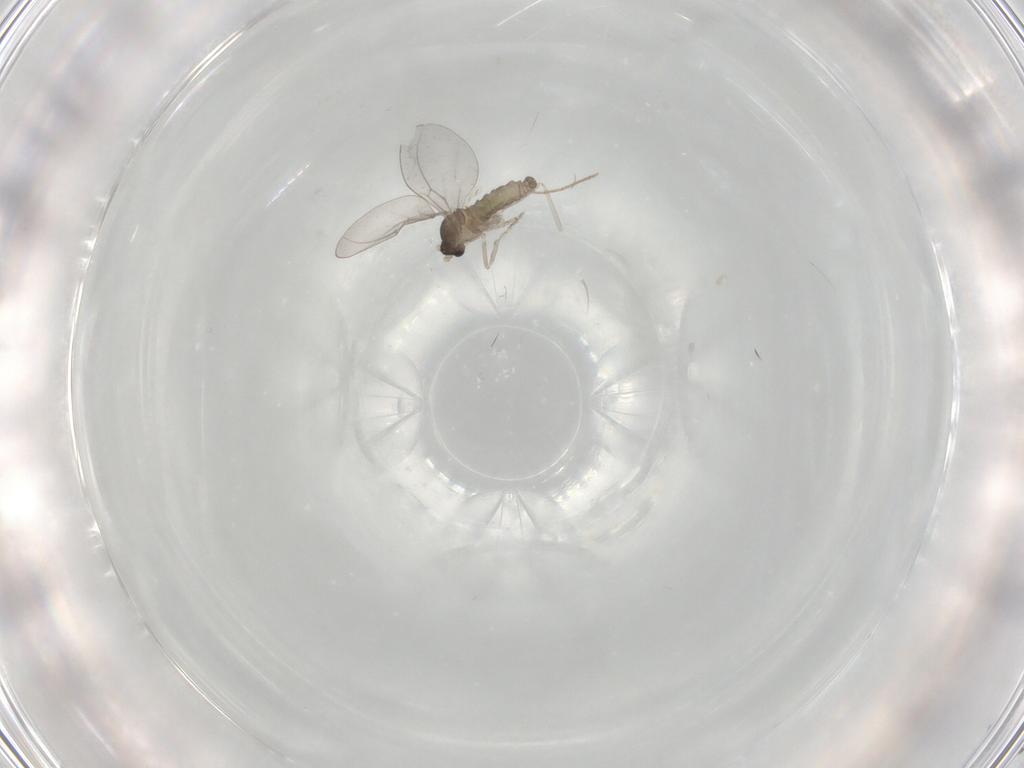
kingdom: Animalia
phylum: Arthropoda
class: Insecta
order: Diptera
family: Cecidomyiidae
